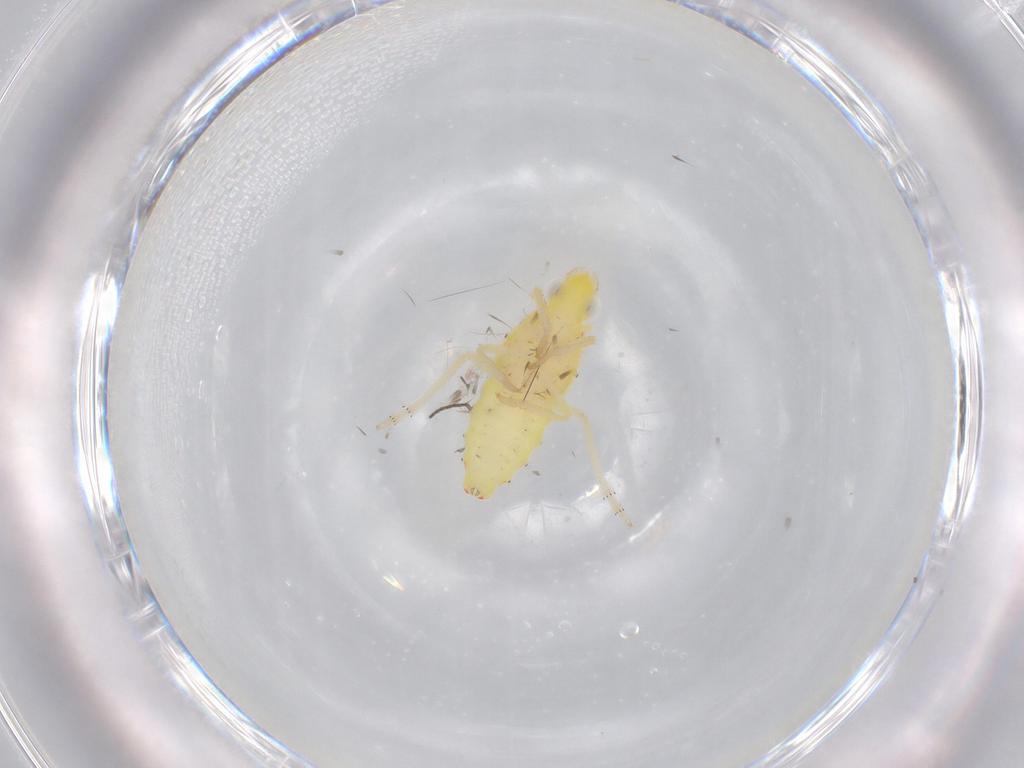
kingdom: Animalia
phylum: Arthropoda
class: Insecta
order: Hemiptera
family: Tropiduchidae
